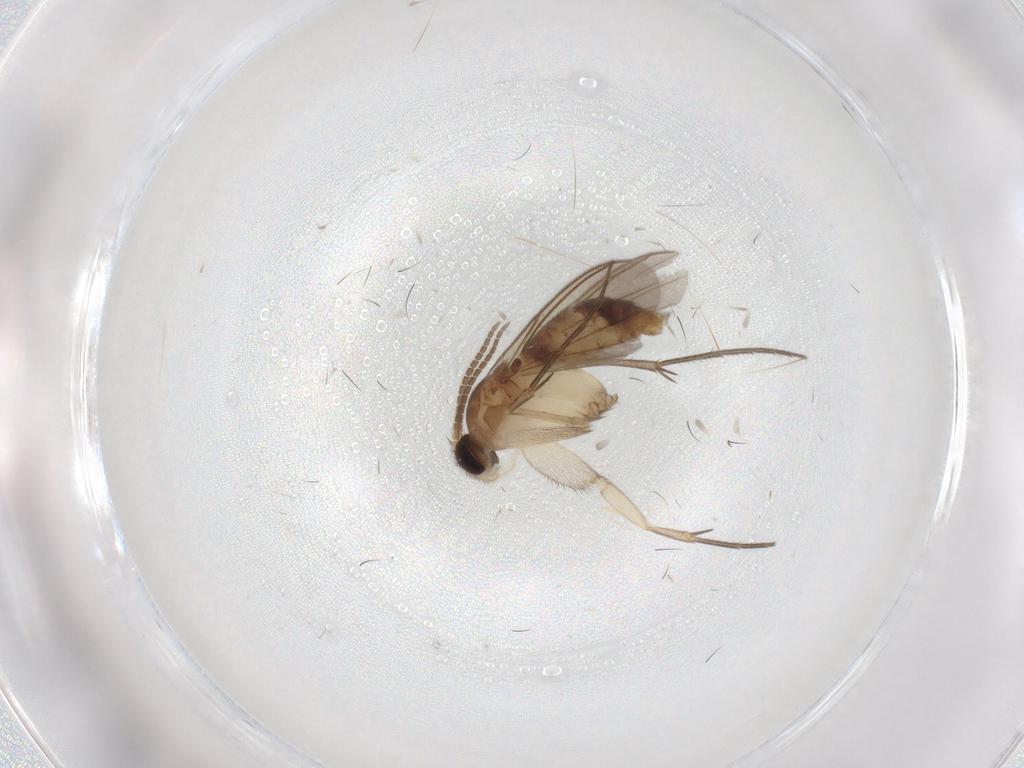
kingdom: Animalia
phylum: Arthropoda
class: Insecta
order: Diptera
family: Mycetophilidae
